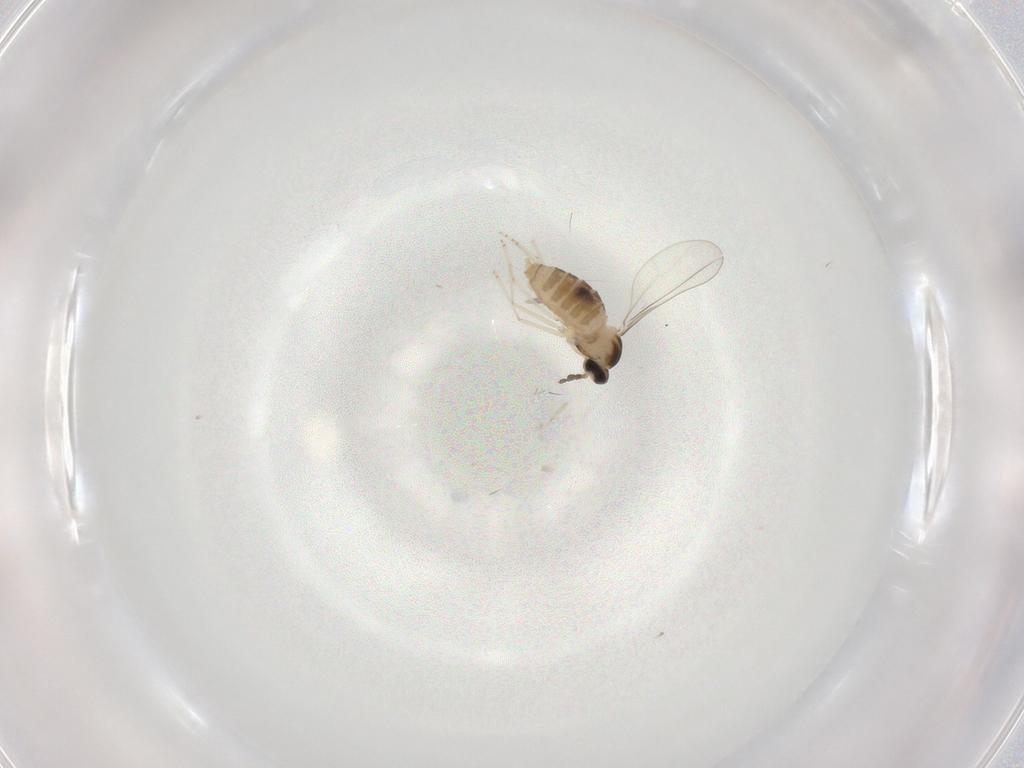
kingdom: Animalia
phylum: Arthropoda
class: Insecta
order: Diptera
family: Cecidomyiidae
